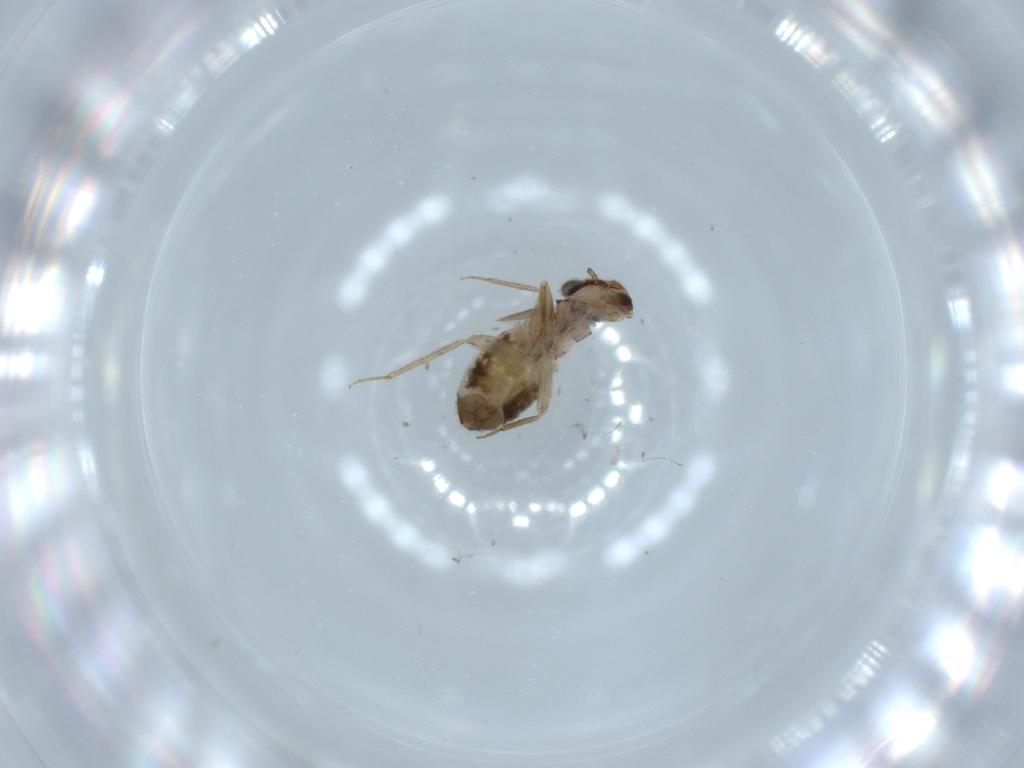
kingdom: Animalia
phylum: Arthropoda
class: Insecta
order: Psocodea
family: Lepidopsocidae
